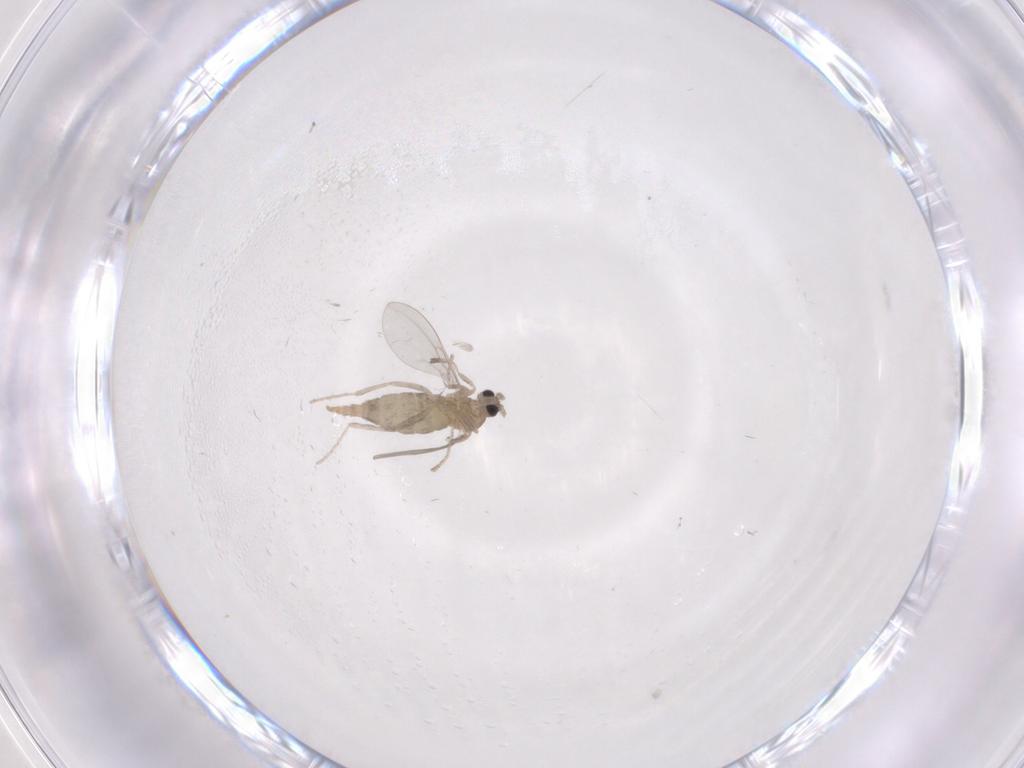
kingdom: Animalia
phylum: Arthropoda
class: Insecta
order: Diptera
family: Cecidomyiidae
